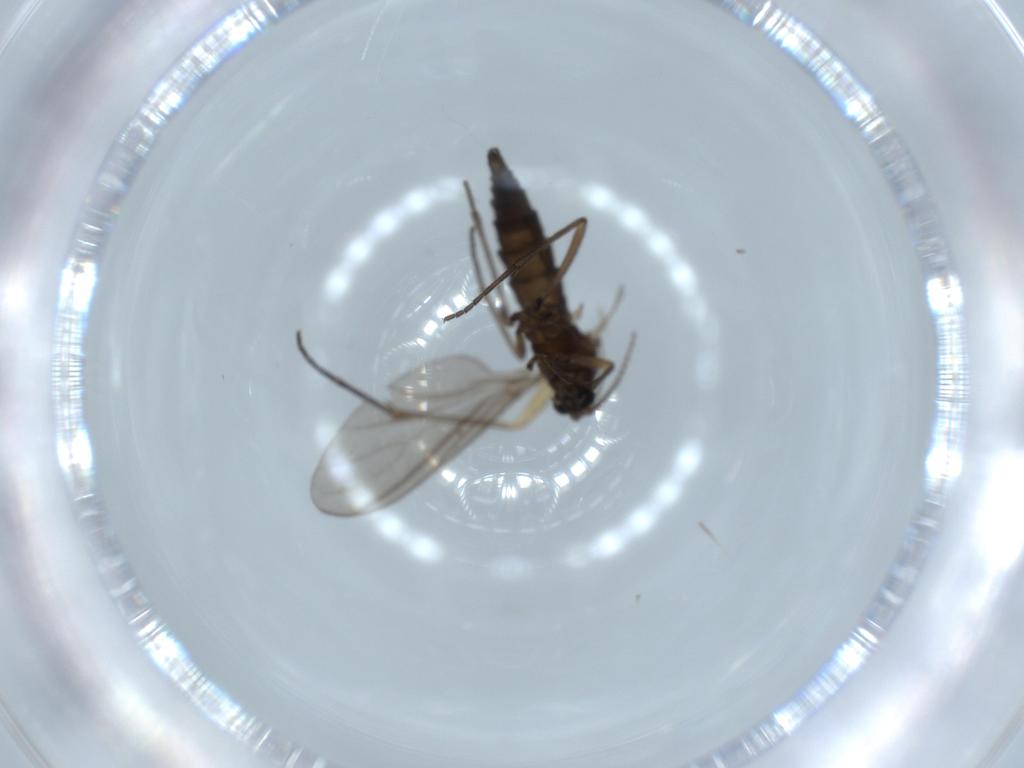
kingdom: Animalia
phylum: Arthropoda
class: Insecta
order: Diptera
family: Sciaridae
